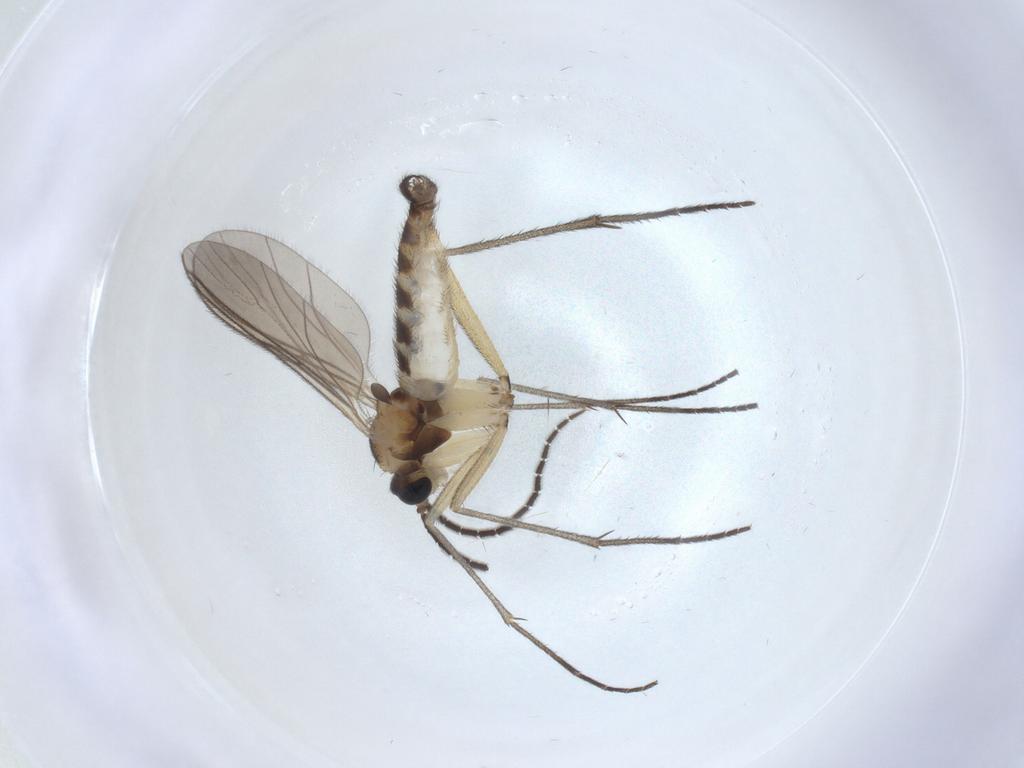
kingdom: Animalia
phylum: Arthropoda
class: Insecta
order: Diptera
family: Sciaridae
